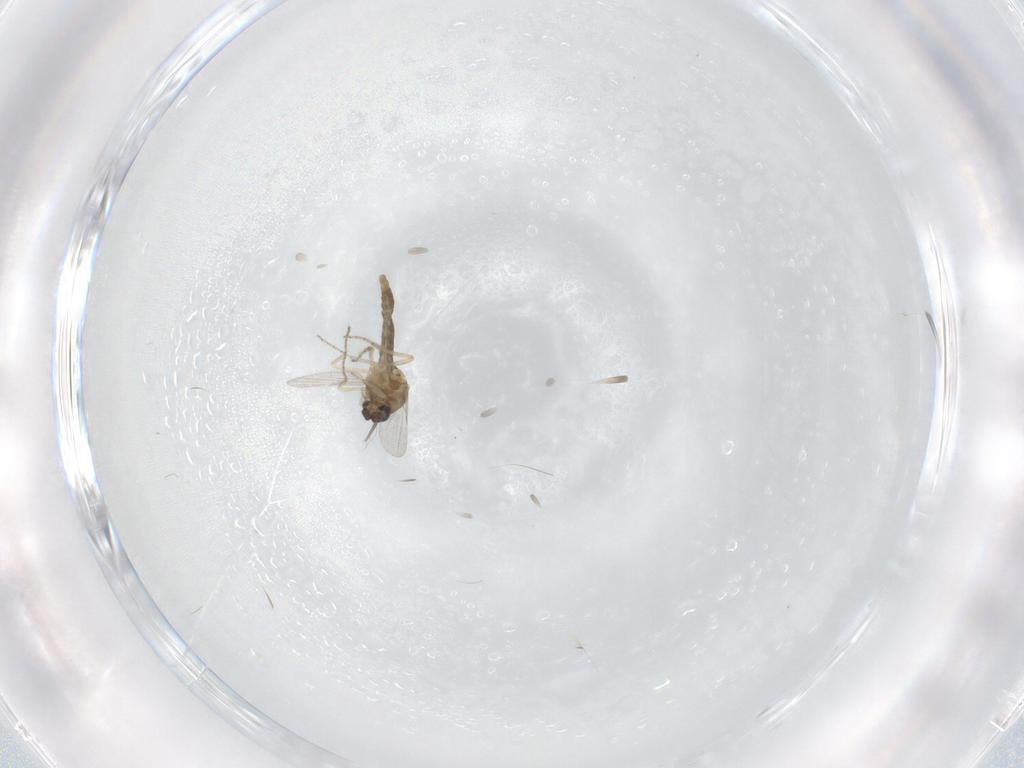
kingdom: Animalia
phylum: Arthropoda
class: Insecta
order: Diptera
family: Ceratopogonidae
